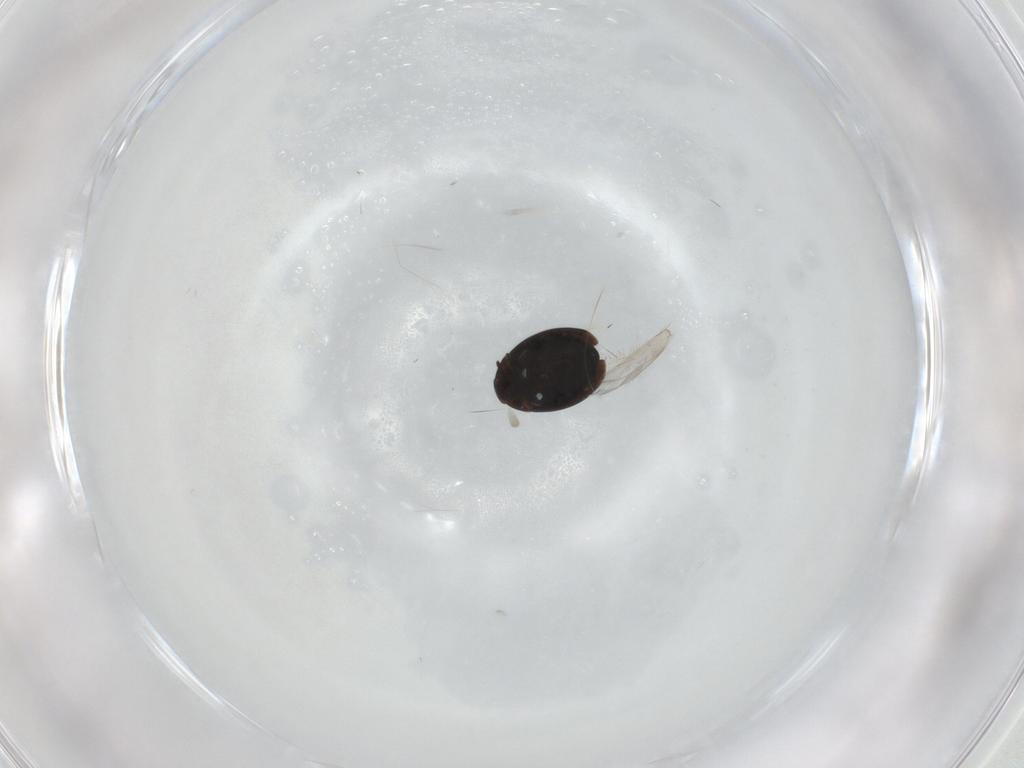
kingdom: Animalia
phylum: Arthropoda
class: Insecta
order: Coleoptera
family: Corylophidae
